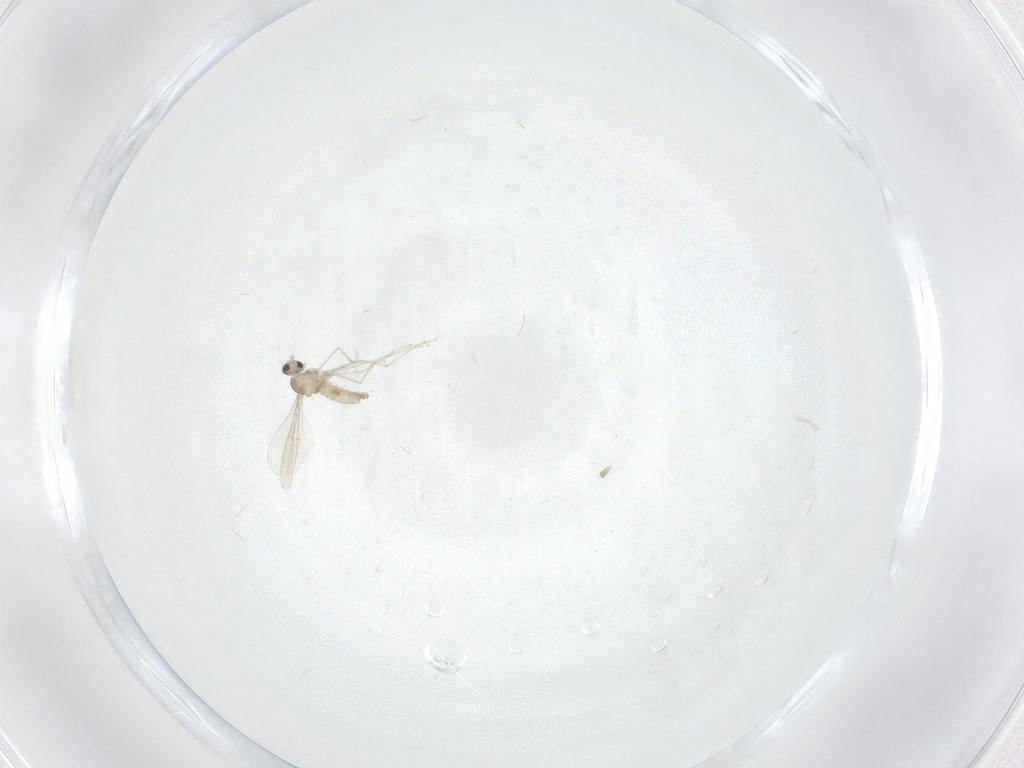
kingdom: Animalia
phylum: Arthropoda
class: Insecta
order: Diptera
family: Cecidomyiidae
